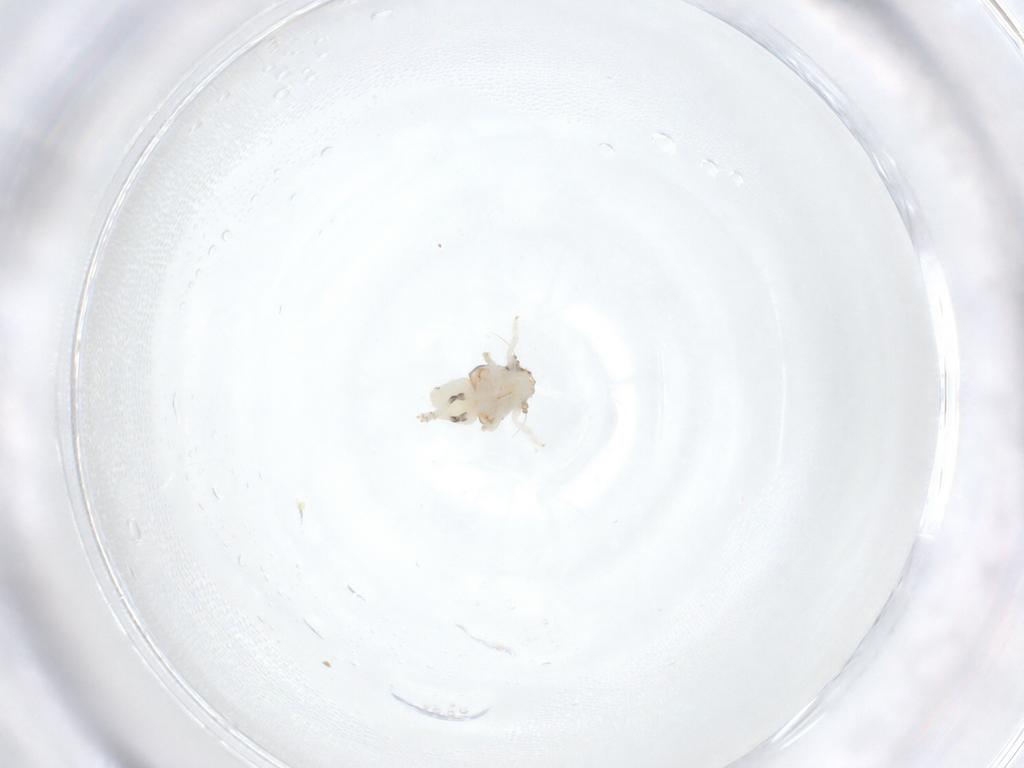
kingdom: Animalia
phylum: Arthropoda
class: Insecta
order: Hemiptera
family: Nogodinidae
